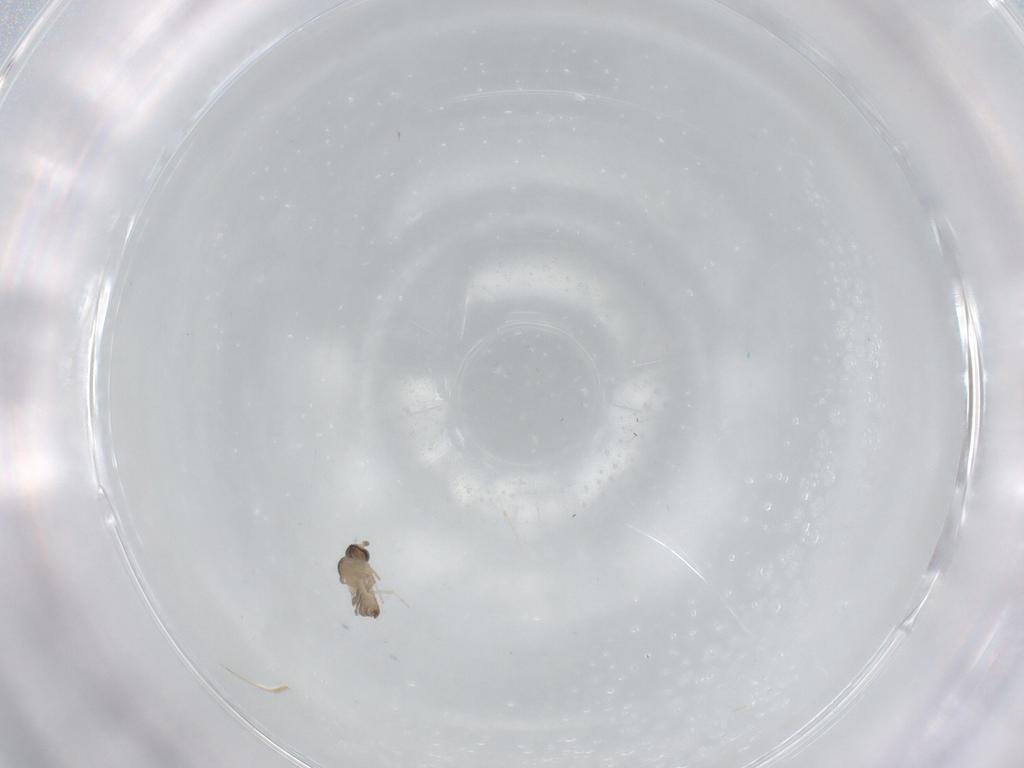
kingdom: Animalia
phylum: Arthropoda
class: Insecta
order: Diptera
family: Cecidomyiidae
